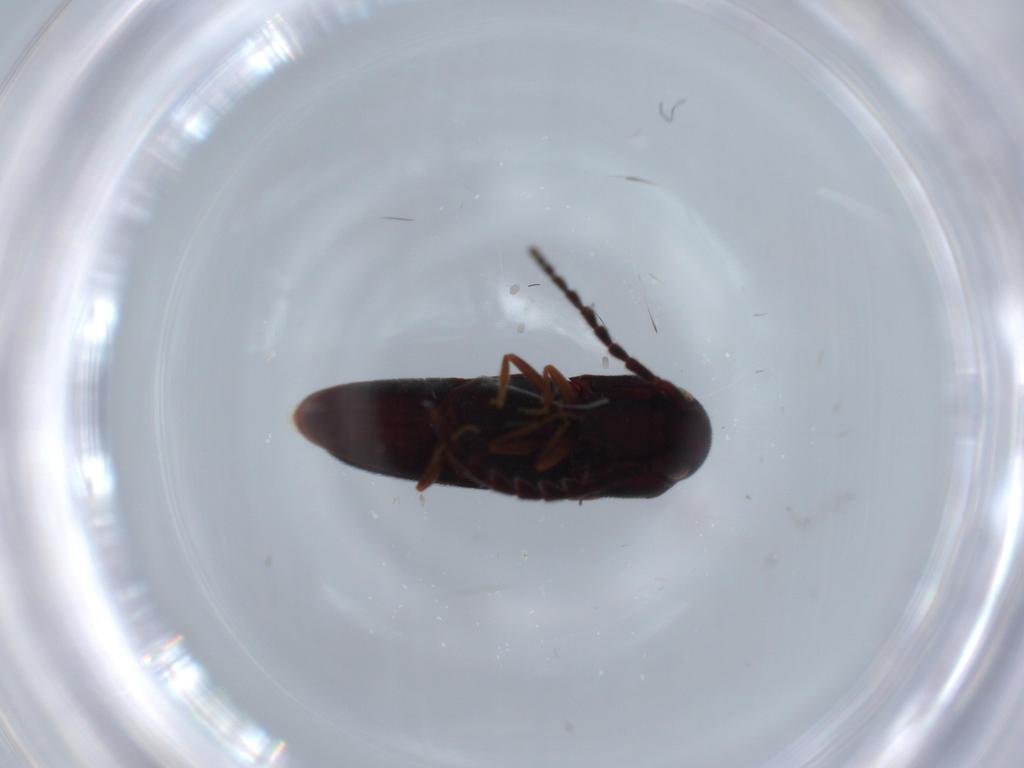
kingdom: Animalia
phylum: Arthropoda
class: Insecta
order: Coleoptera
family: Eucnemidae
